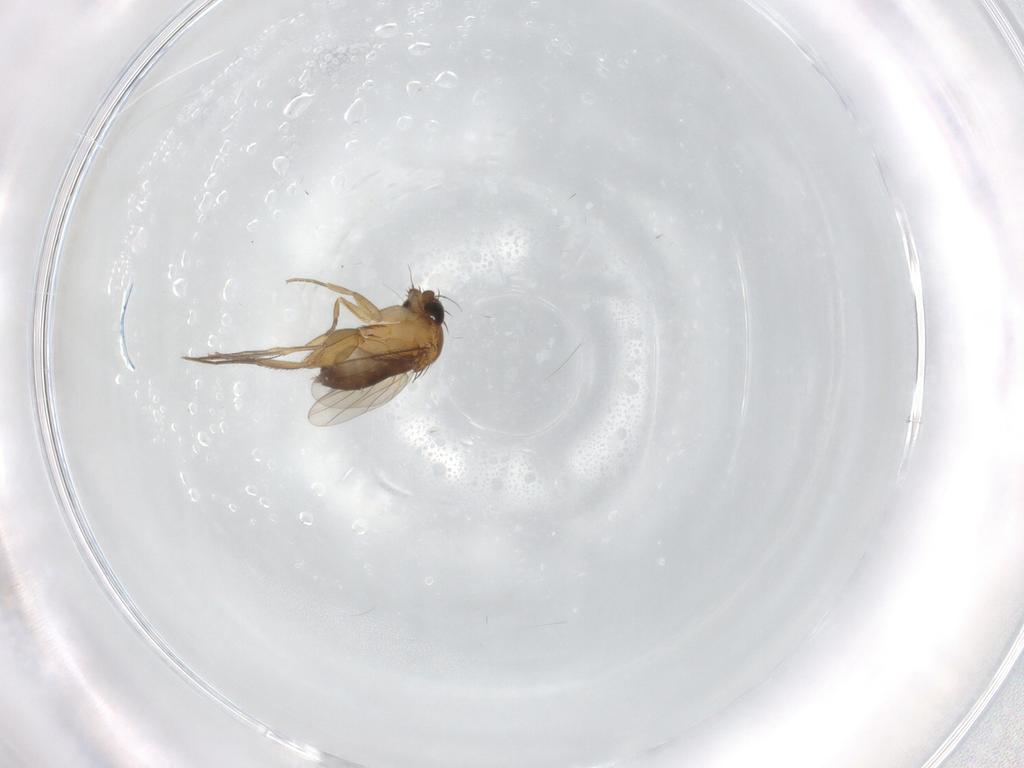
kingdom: Animalia
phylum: Arthropoda
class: Insecta
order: Diptera
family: Phoridae
